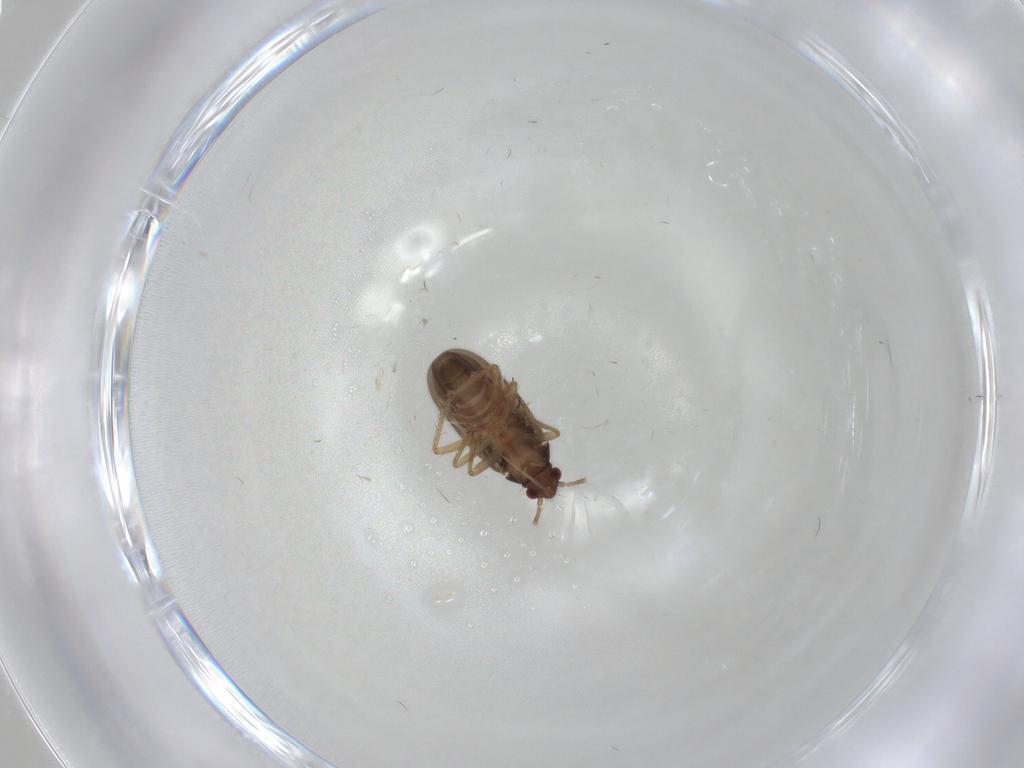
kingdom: Animalia
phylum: Arthropoda
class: Insecta
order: Hemiptera
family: Ceratocombidae
